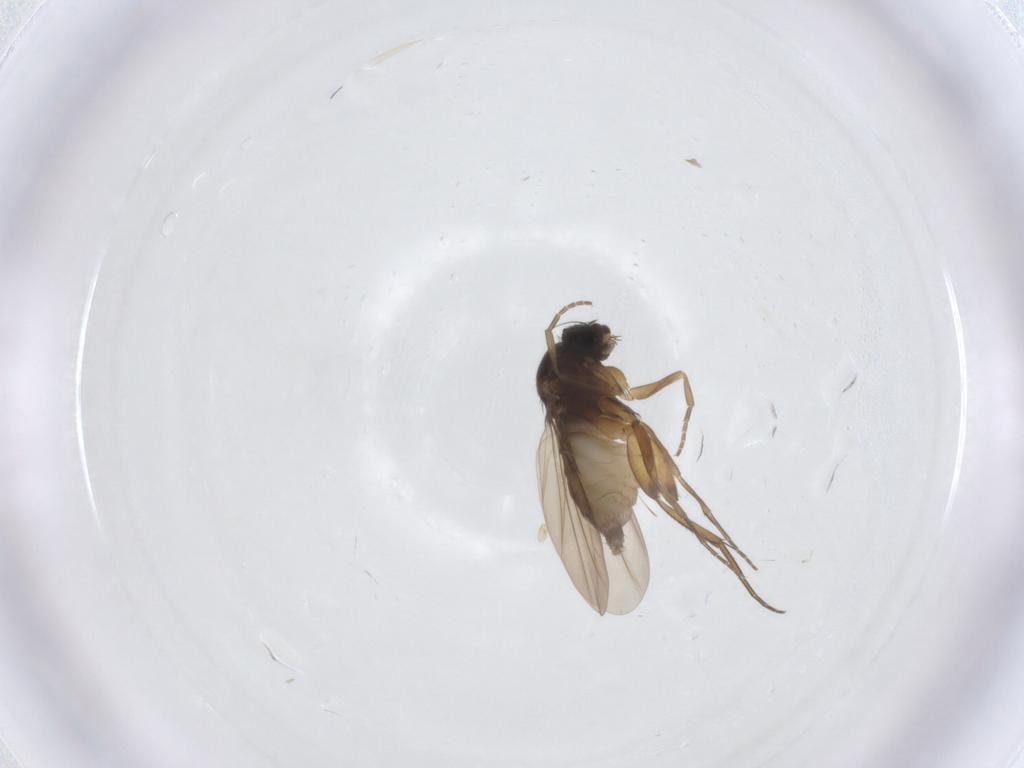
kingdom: Animalia
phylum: Arthropoda
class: Insecta
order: Diptera
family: Phoridae
